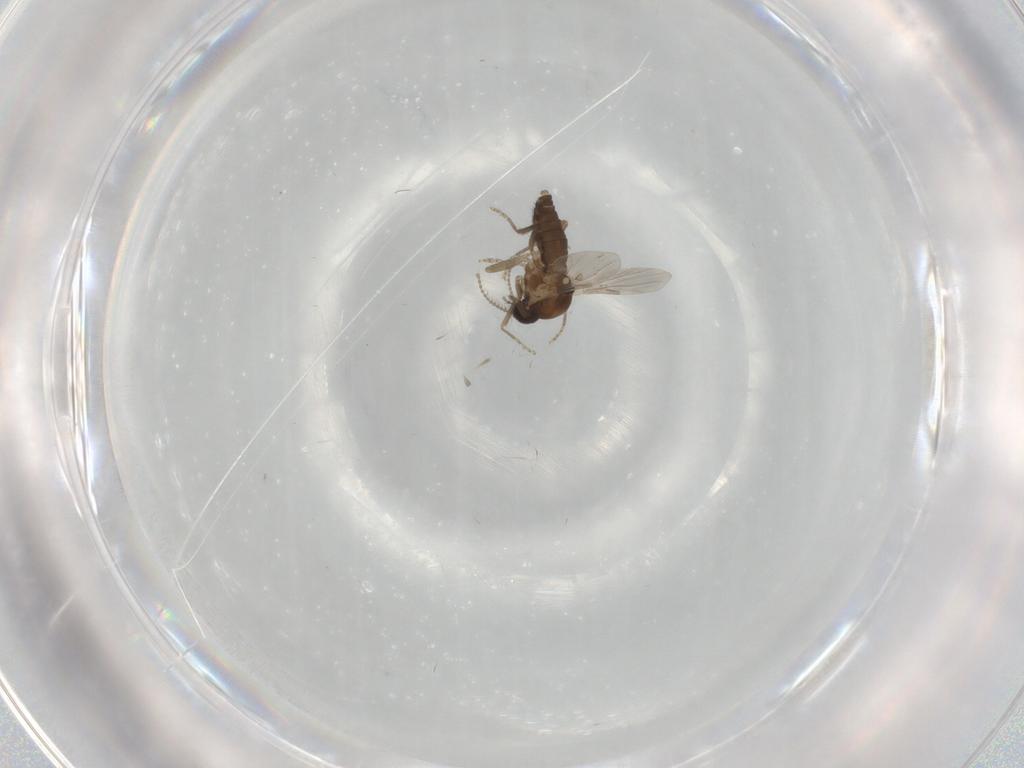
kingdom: Animalia
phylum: Arthropoda
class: Insecta
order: Diptera
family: Ceratopogonidae
